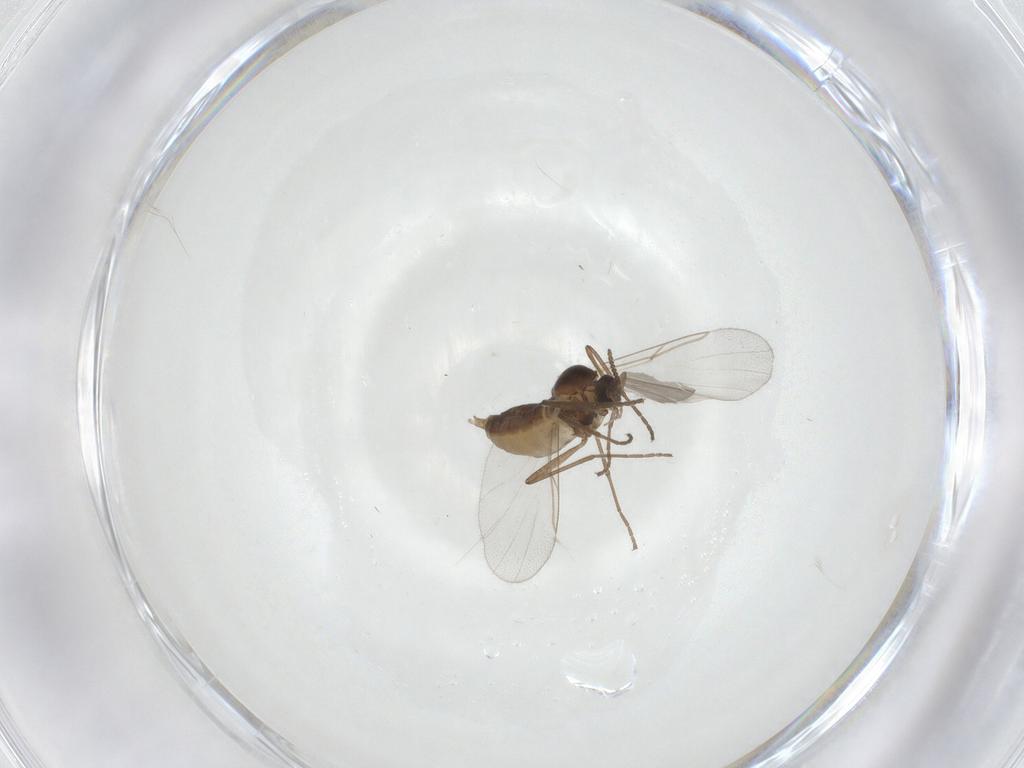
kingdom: Animalia
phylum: Arthropoda
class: Insecta
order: Diptera
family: Cecidomyiidae
